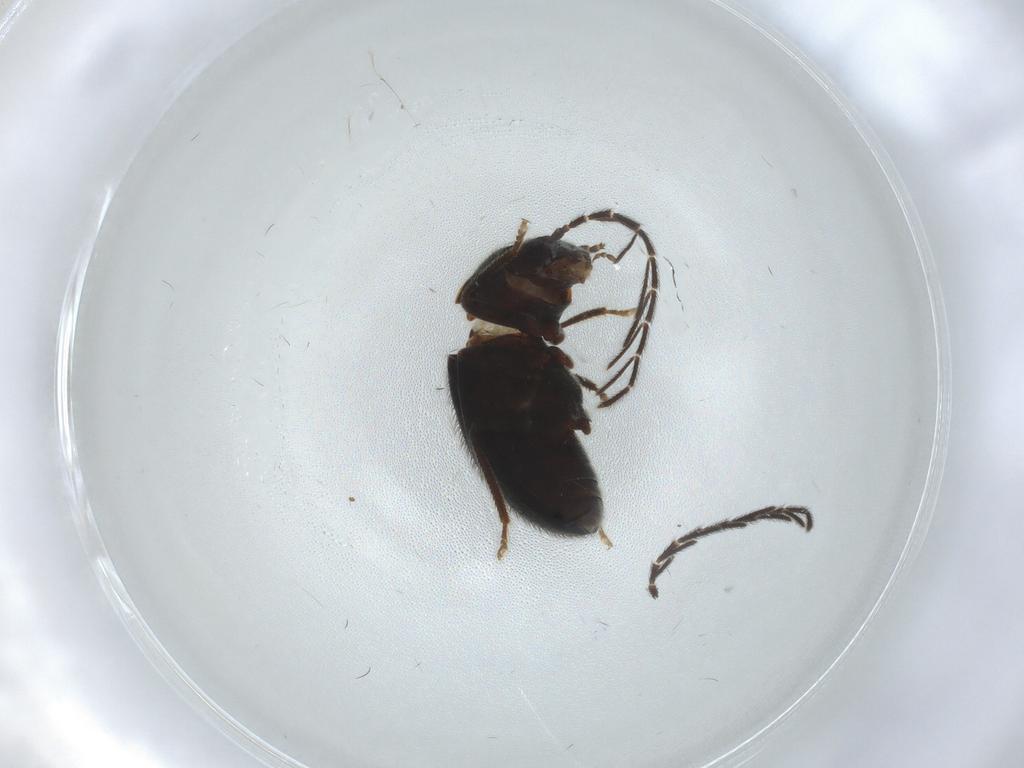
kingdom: Animalia
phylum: Arthropoda
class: Insecta
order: Coleoptera
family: Ptilodactylidae
